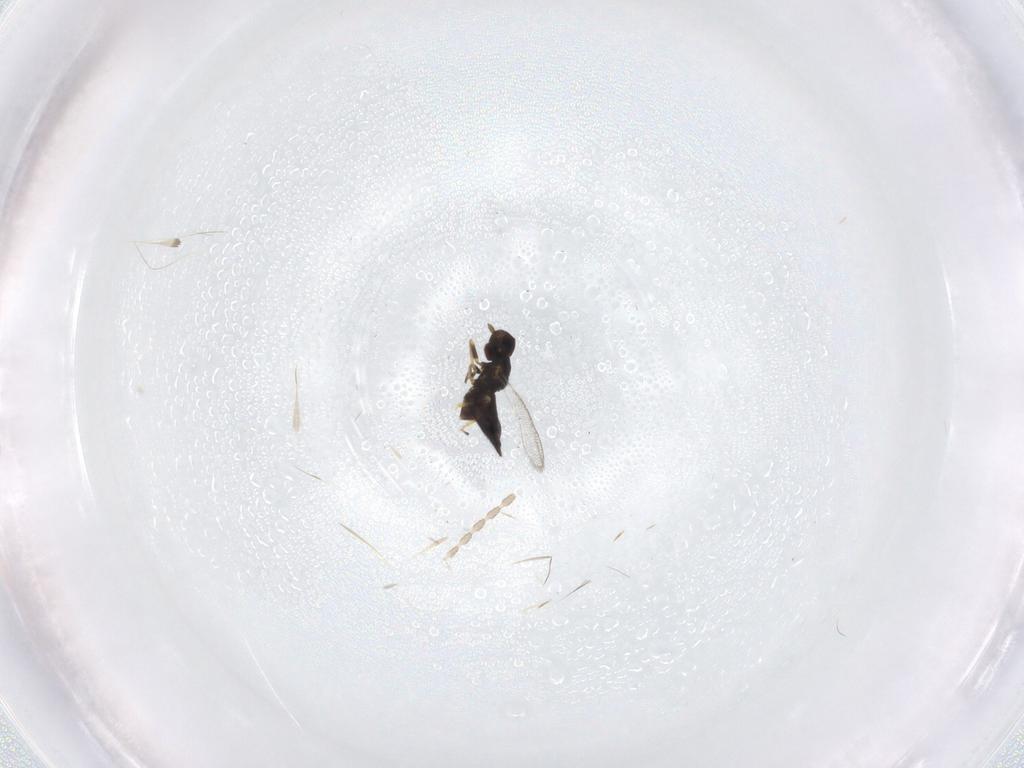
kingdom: Animalia
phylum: Arthropoda
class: Insecta
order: Hymenoptera
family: Eulophidae
